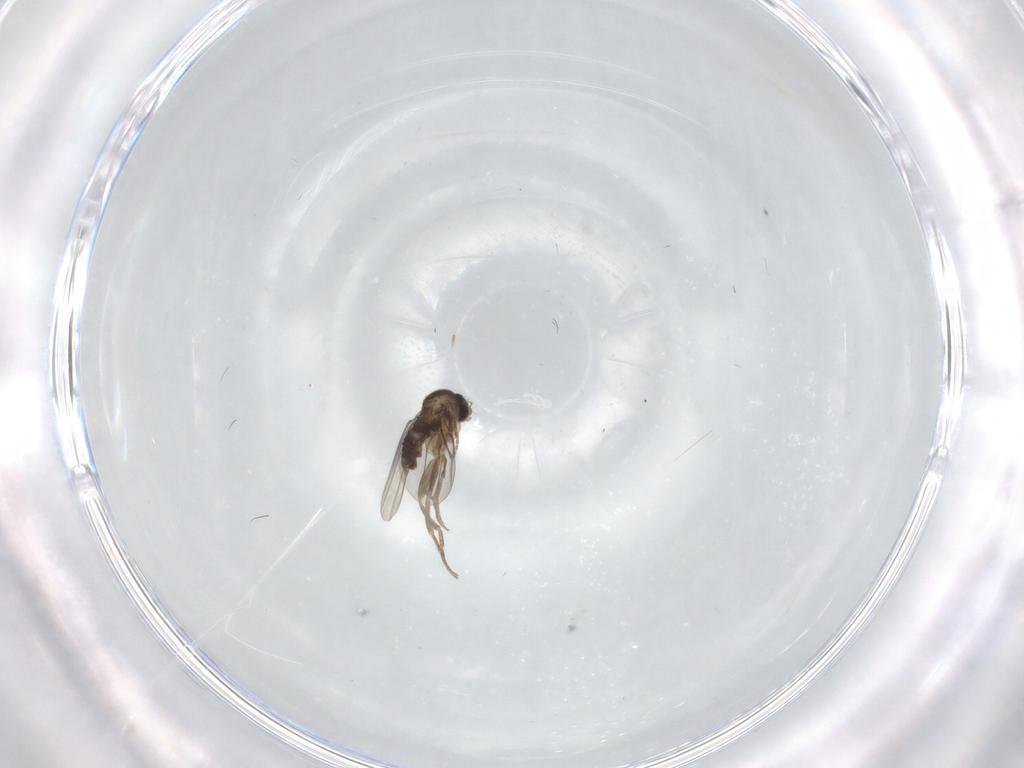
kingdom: Animalia
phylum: Arthropoda
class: Insecta
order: Diptera
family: Phoridae
